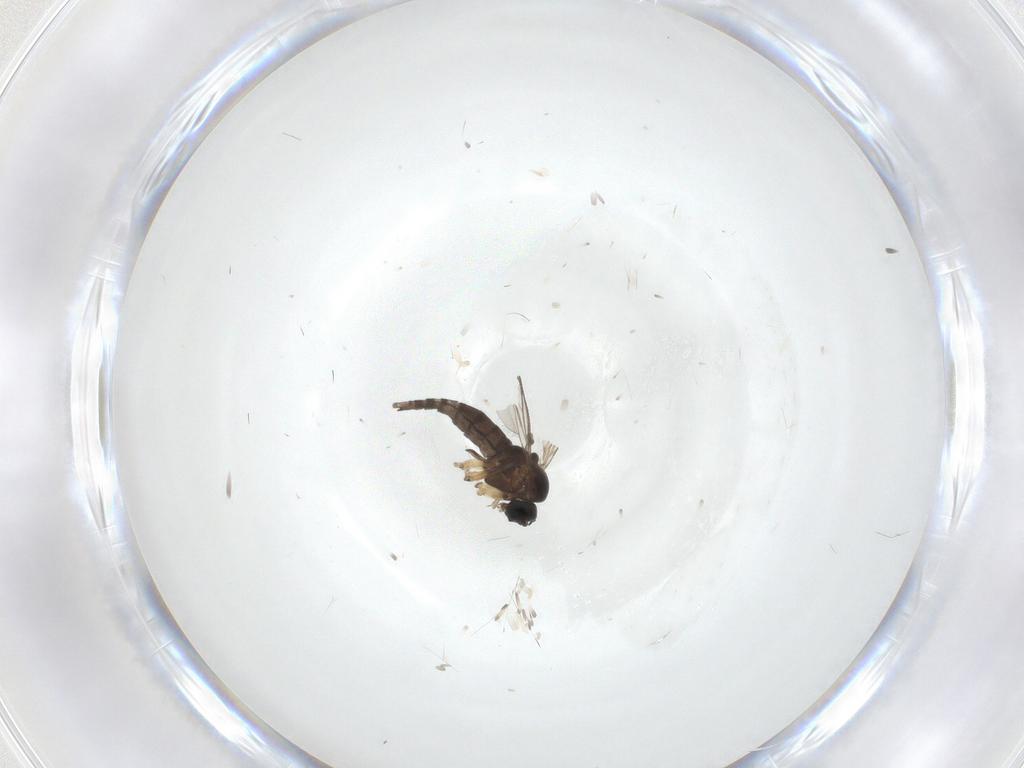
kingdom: Animalia
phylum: Arthropoda
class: Insecta
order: Diptera
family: Sciaridae
